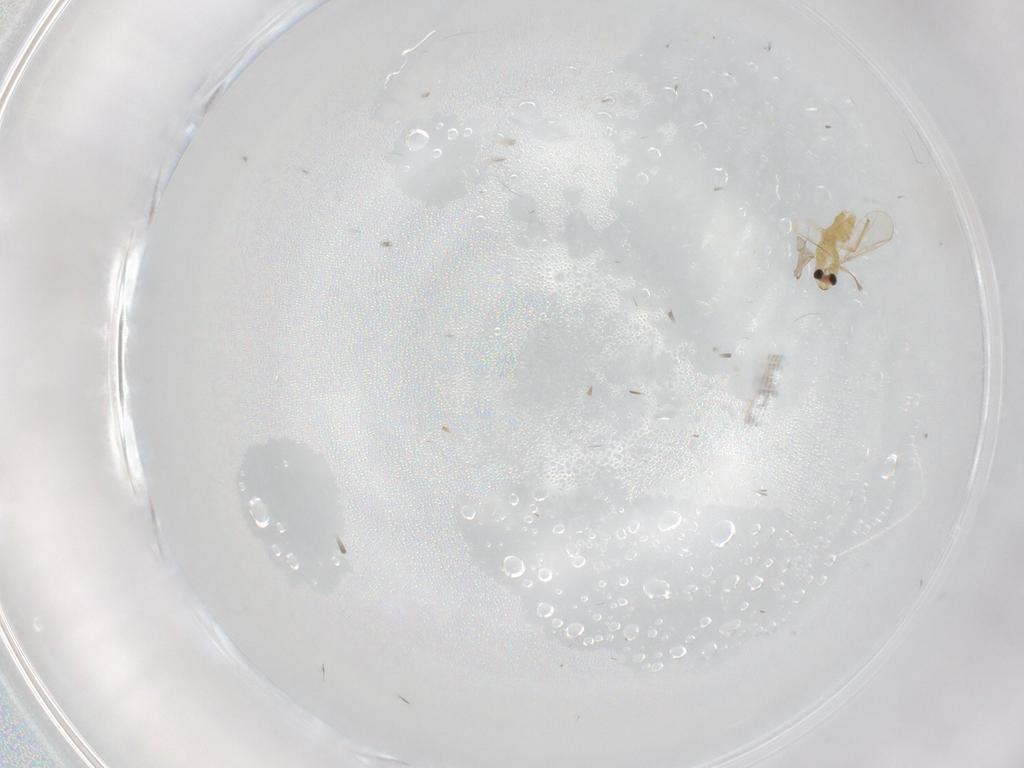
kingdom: Animalia
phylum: Arthropoda
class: Insecta
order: Diptera
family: Chironomidae
